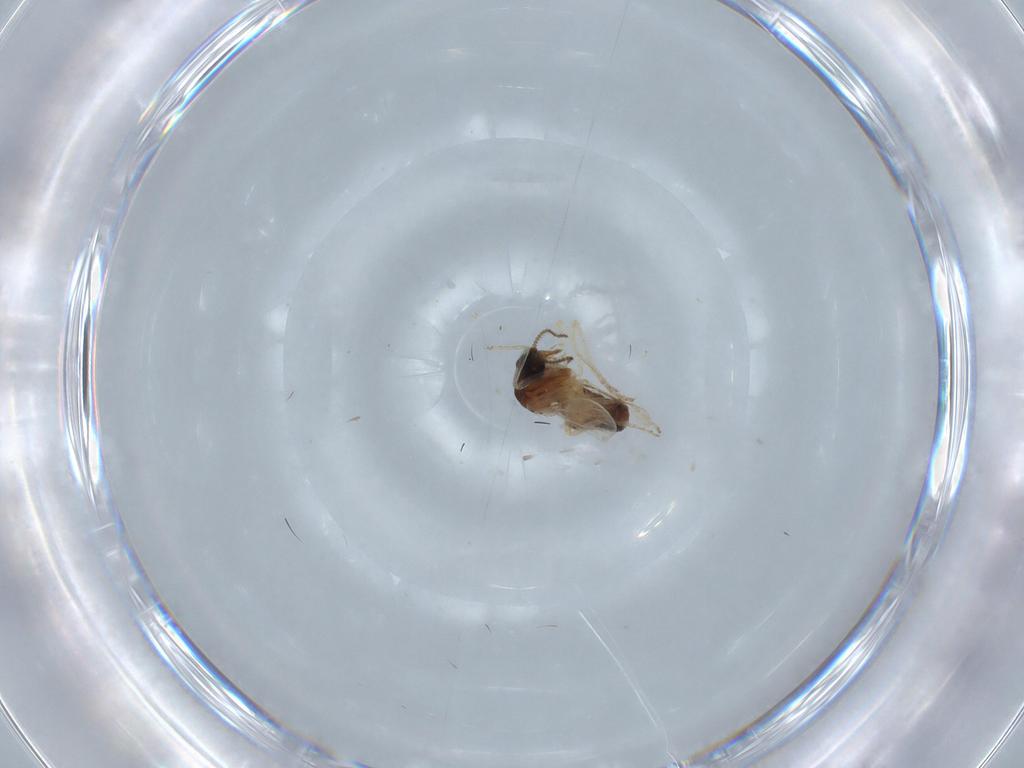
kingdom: Animalia
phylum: Arthropoda
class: Insecta
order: Diptera
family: Ceratopogonidae
